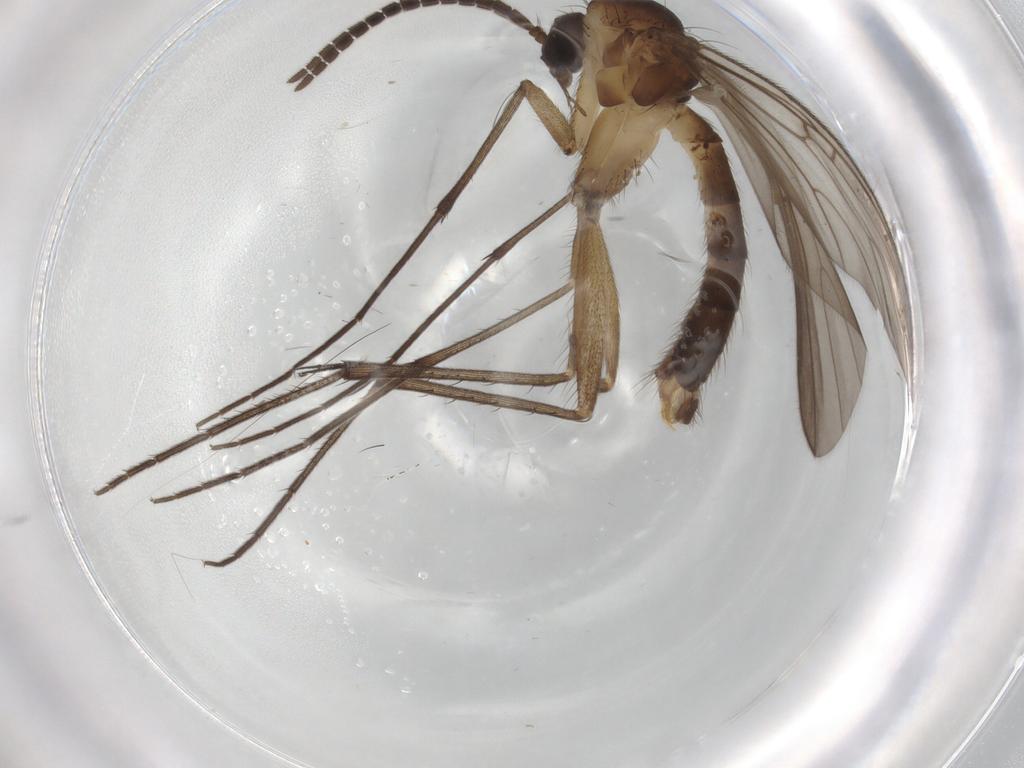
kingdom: Animalia
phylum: Arthropoda
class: Insecta
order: Diptera
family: Mycetophilidae
